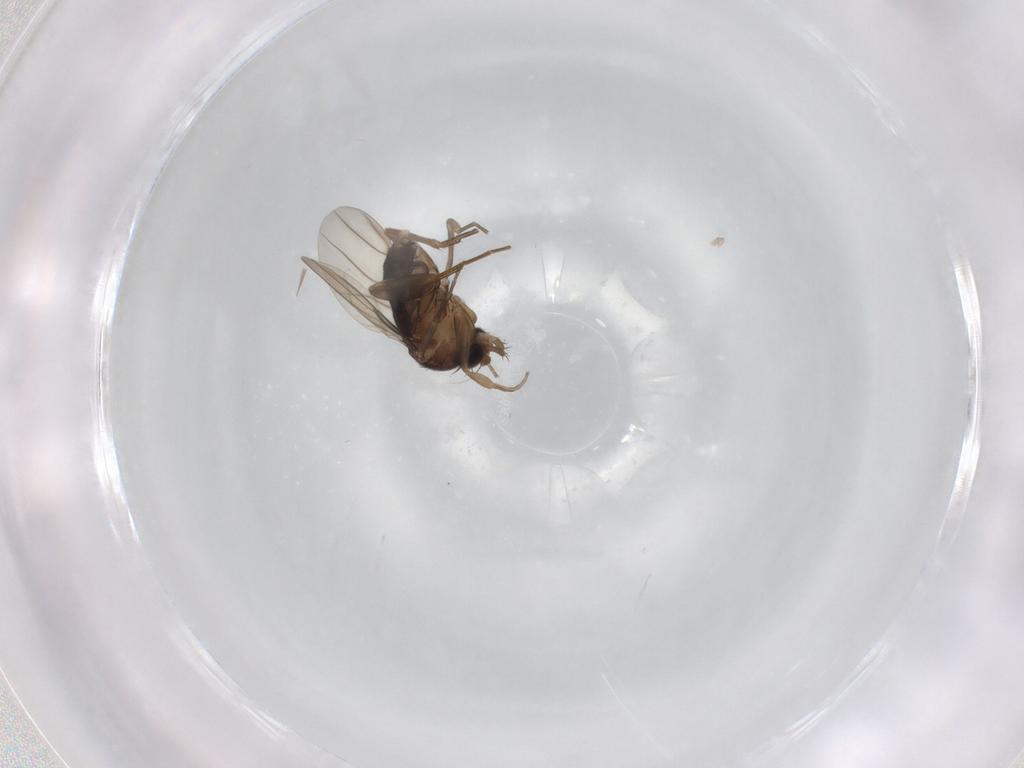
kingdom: Animalia
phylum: Arthropoda
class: Insecta
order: Diptera
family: Phoridae
